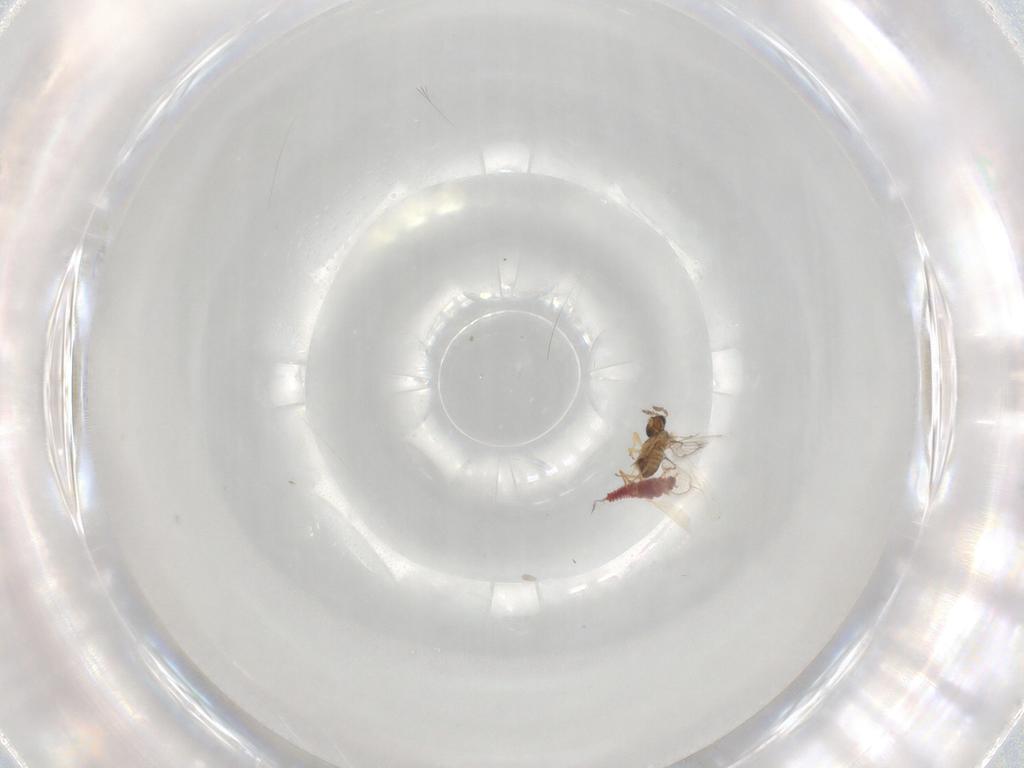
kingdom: Animalia
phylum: Arthropoda
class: Insecta
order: Hymenoptera
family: Trichogrammatidae
